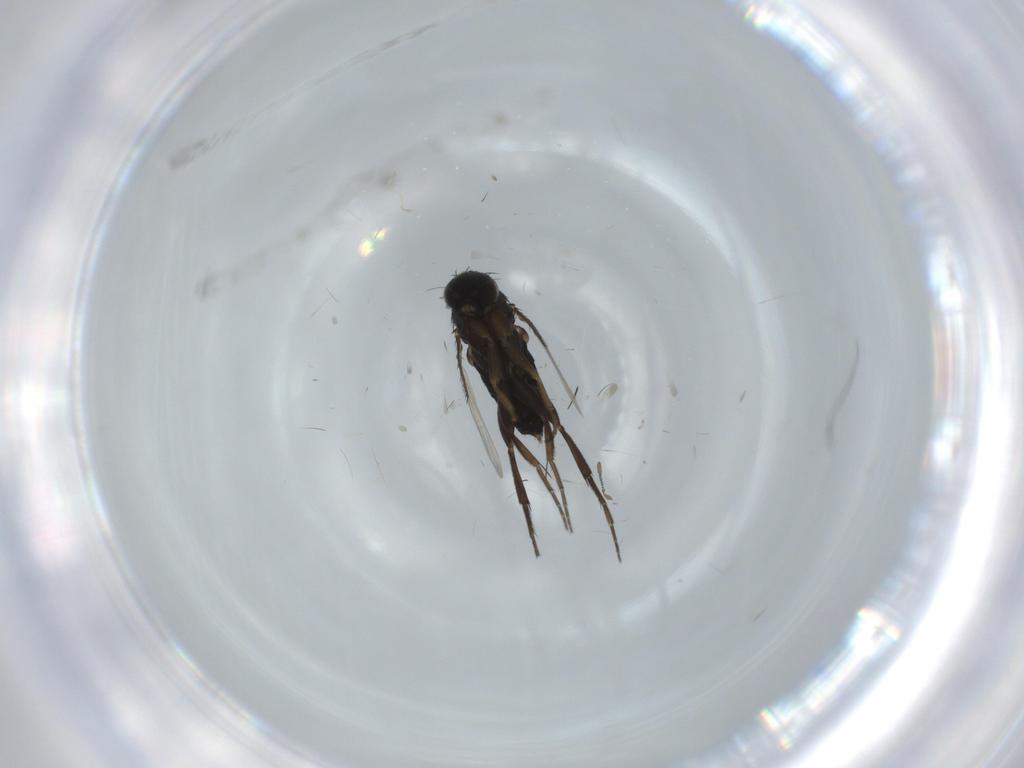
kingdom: Animalia
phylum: Arthropoda
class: Insecta
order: Diptera
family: Phoridae
